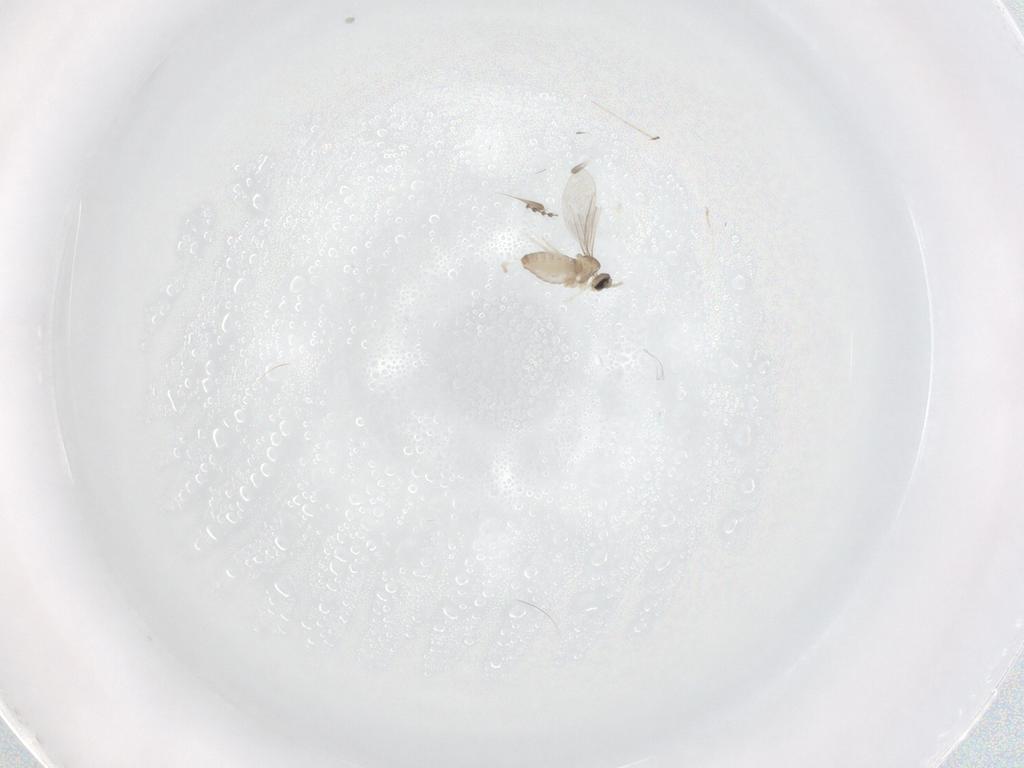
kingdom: Animalia
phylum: Arthropoda
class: Insecta
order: Diptera
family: Cecidomyiidae
